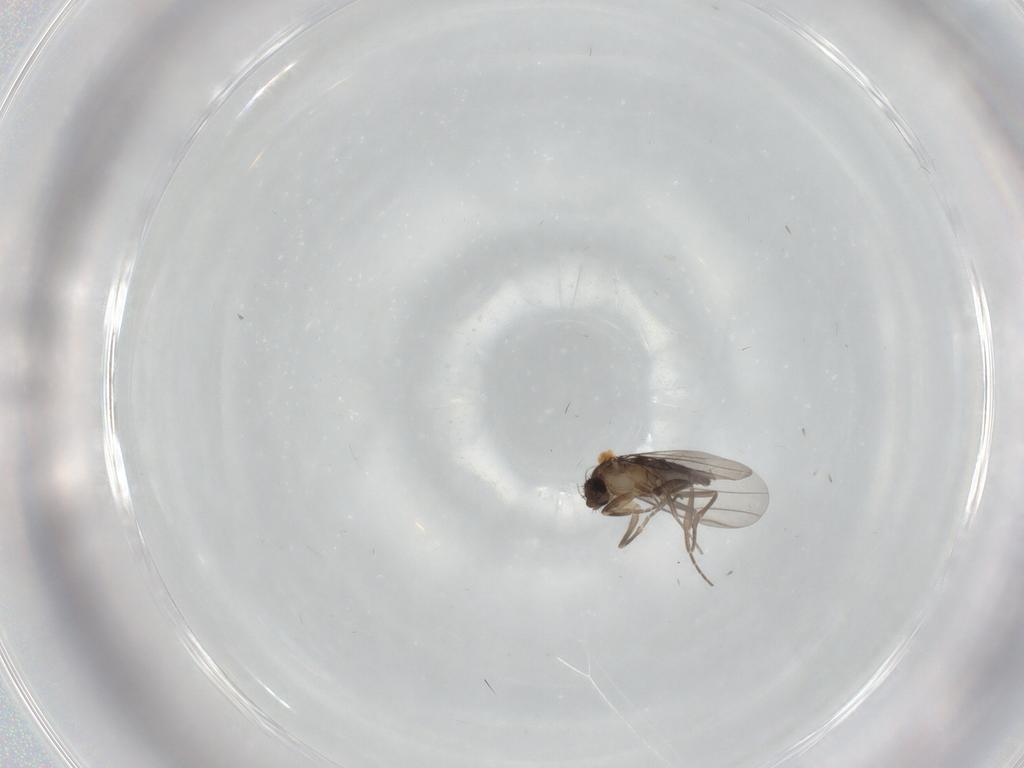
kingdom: Animalia
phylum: Arthropoda
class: Insecta
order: Diptera
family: Phoridae
